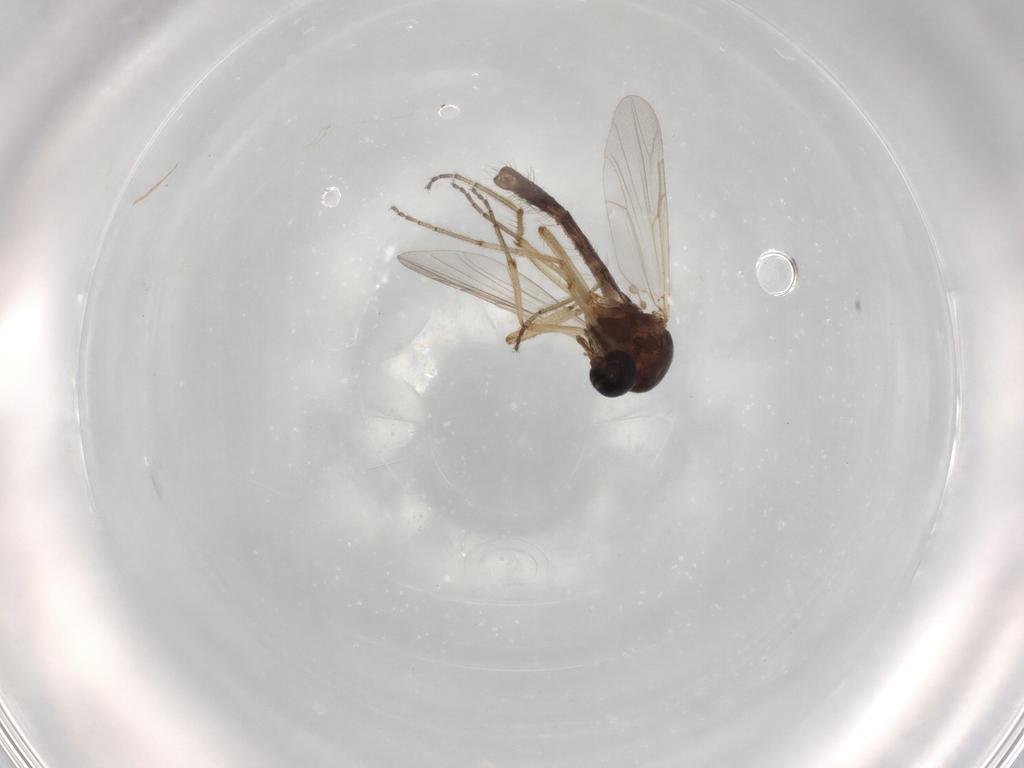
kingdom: Animalia
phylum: Arthropoda
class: Insecta
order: Diptera
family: Ceratopogonidae
